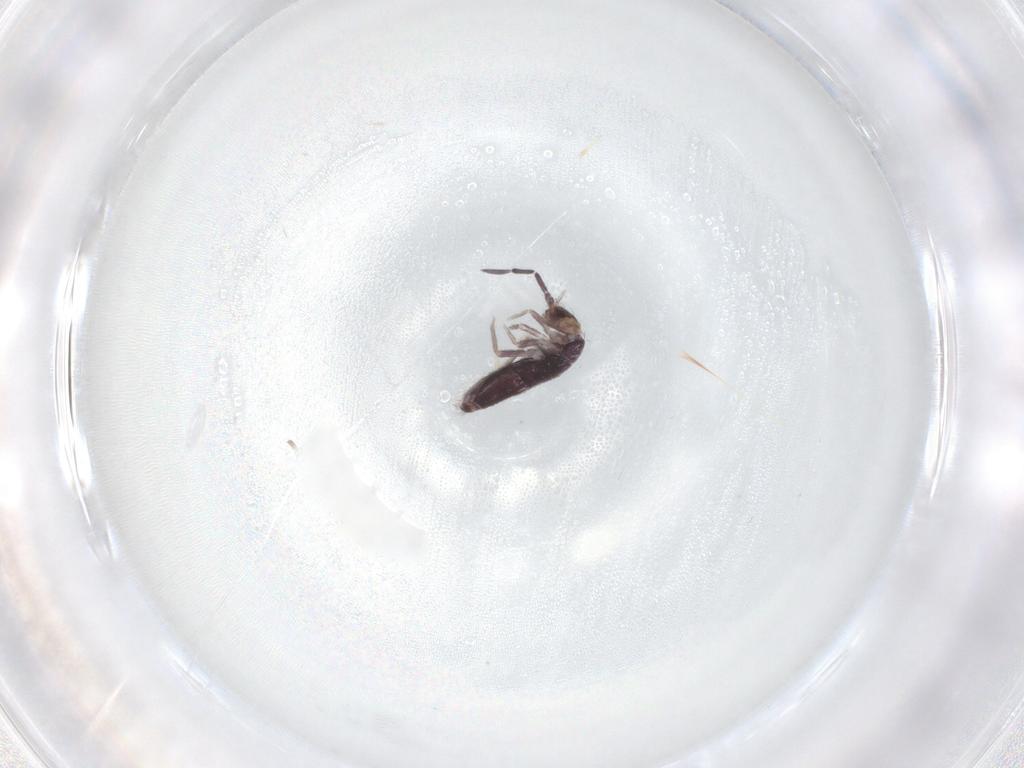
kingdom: Animalia
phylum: Arthropoda
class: Collembola
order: Entomobryomorpha
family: Entomobryidae
